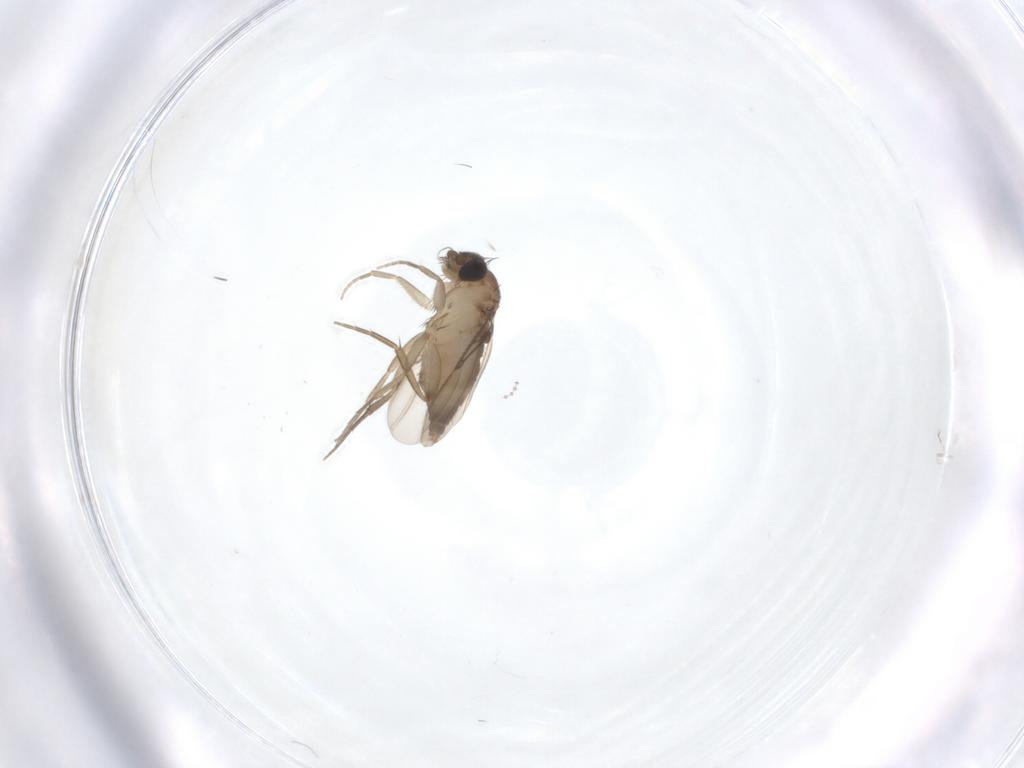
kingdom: Animalia
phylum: Arthropoda
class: Insecta
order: Diptera
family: Phoridae
